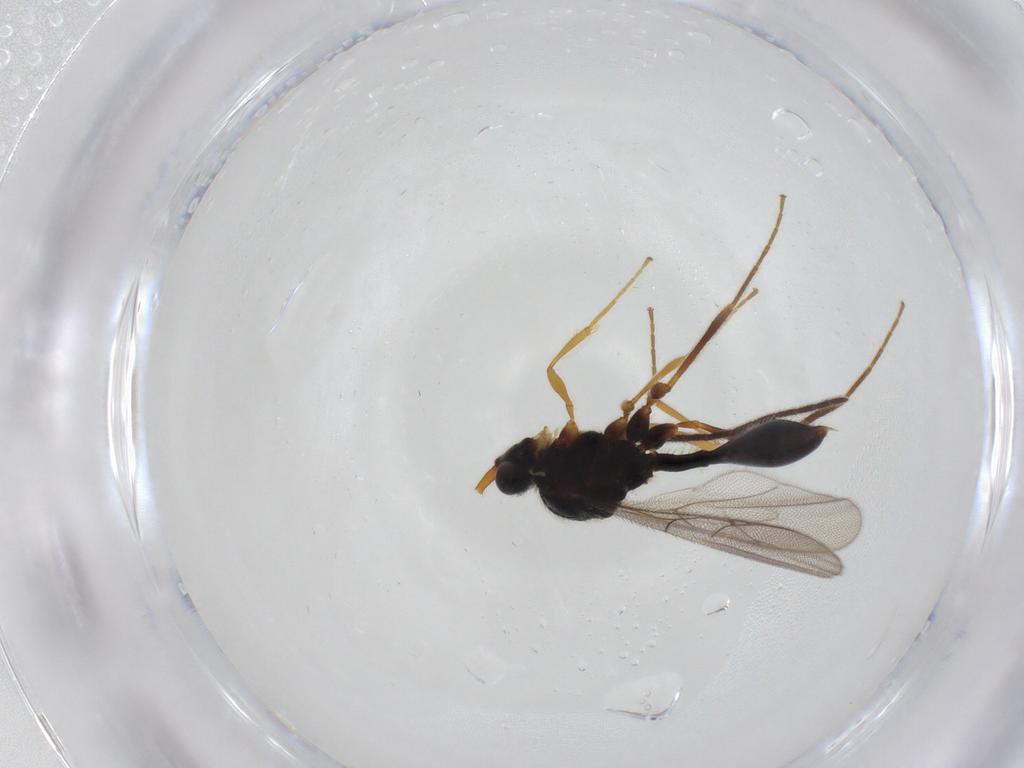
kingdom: Animalia
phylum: Arthropoda
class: Insecta
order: Hymenoptera
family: Diapriidae
